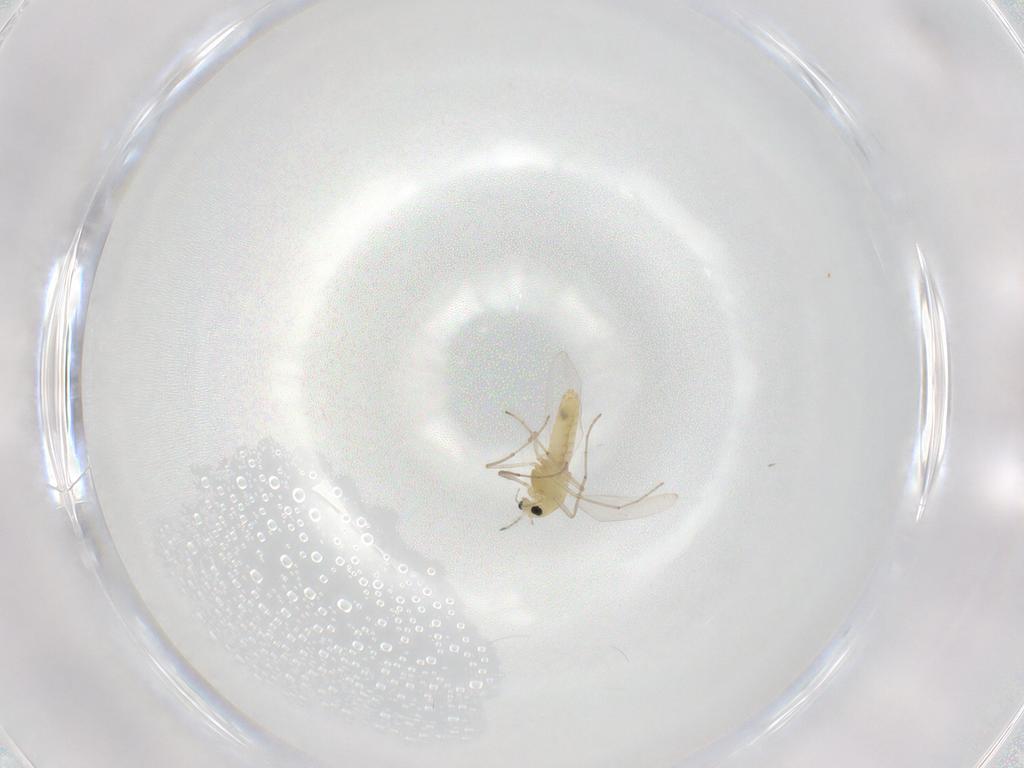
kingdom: Animalia
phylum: Arthropoda
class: Insecta
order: Diptera
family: Chironomidae
